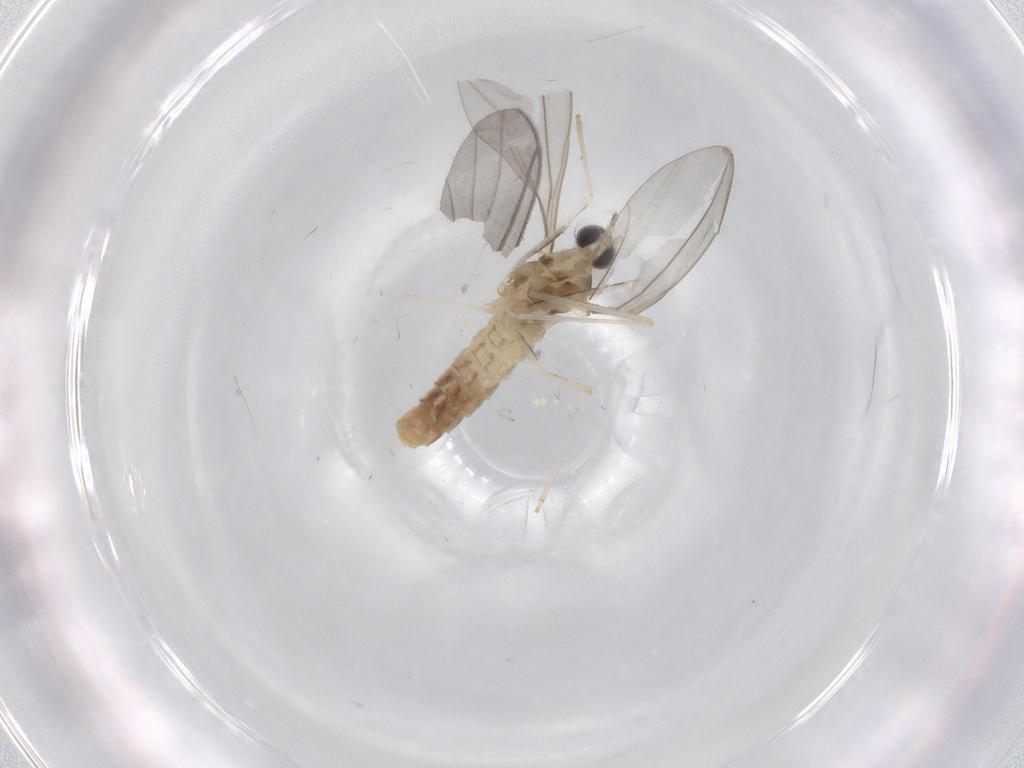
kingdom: Animalia
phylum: Arthropoda
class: Insecta
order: Diptera
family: Cecidomyiidae
